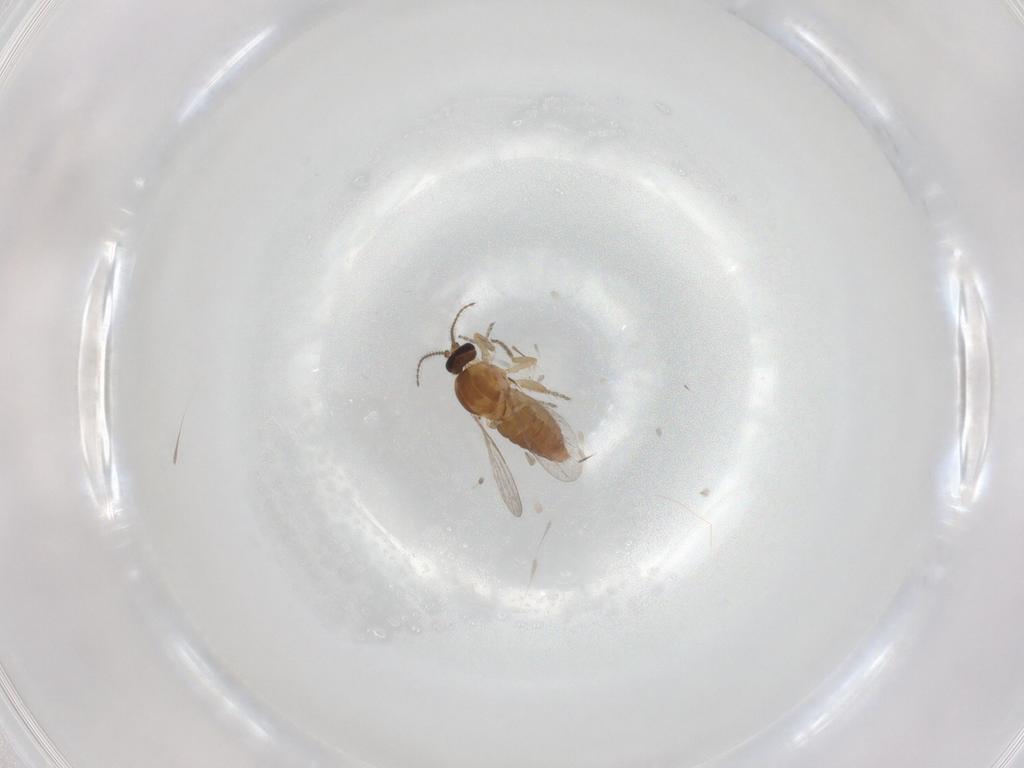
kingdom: Animalia
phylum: Arthropoda
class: Insecta
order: Diptera
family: Ceratopogonidae
